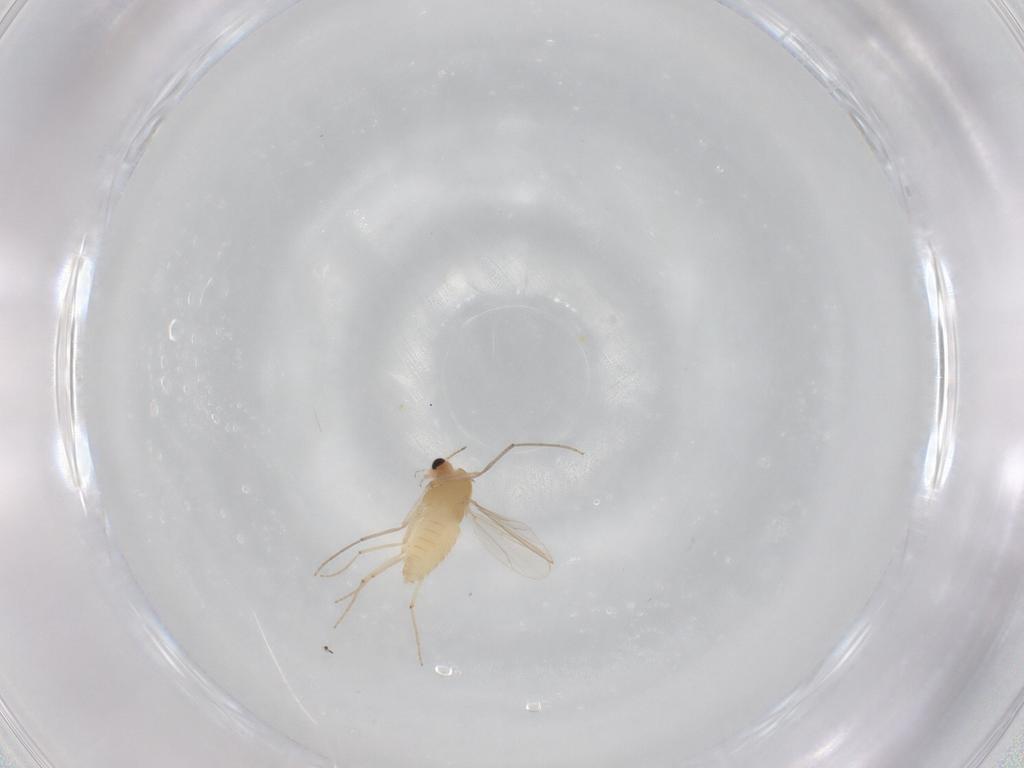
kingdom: Animalia
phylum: Arthropoda
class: Insecta
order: Diptera
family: Chironomidae
